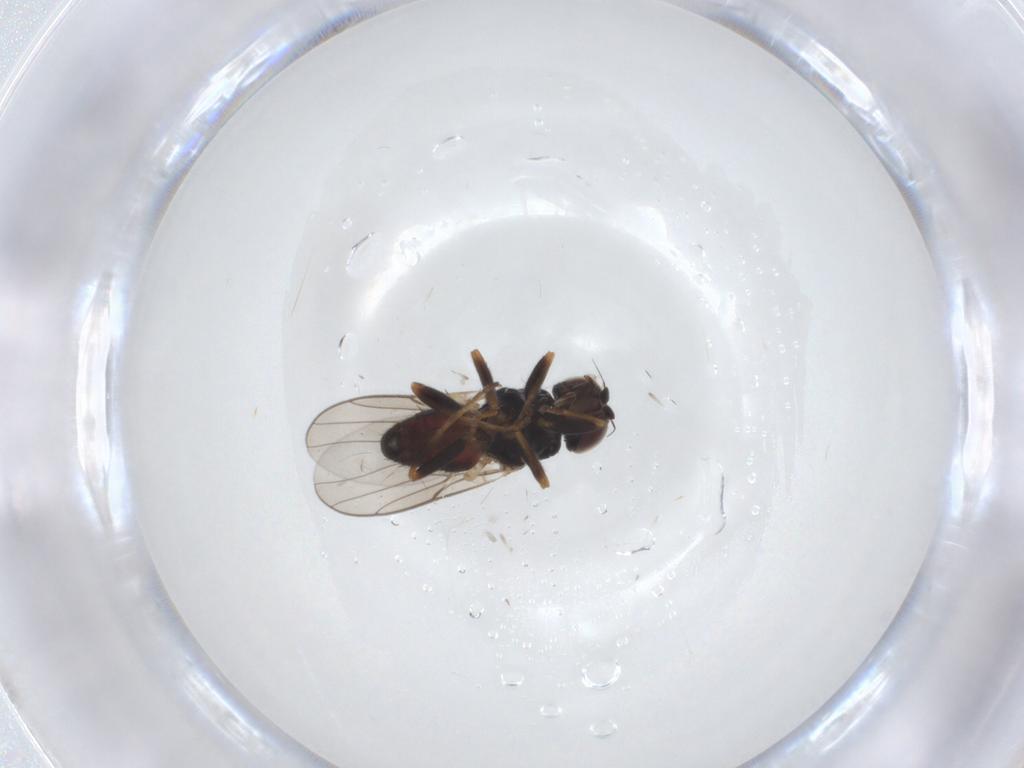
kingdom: Animalia
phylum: Arthropoda
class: Insecta
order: Diptera
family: Chloropidae
